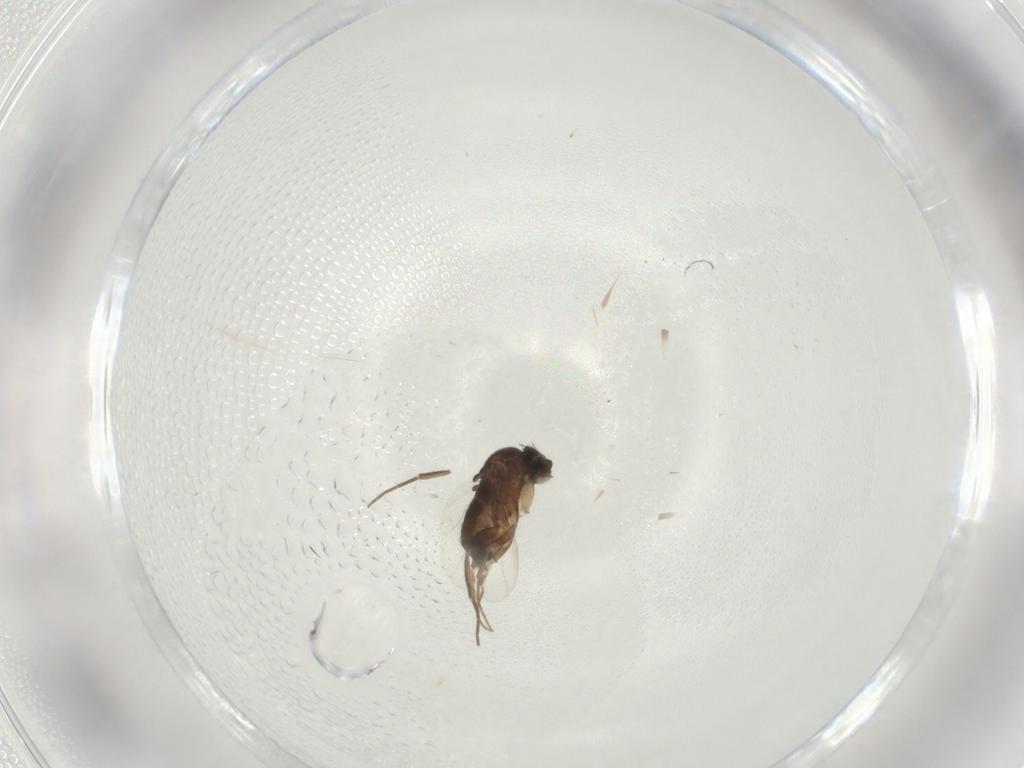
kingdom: Animalia
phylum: Arthropoda
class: Insecta
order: Diptera
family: Phoridae
